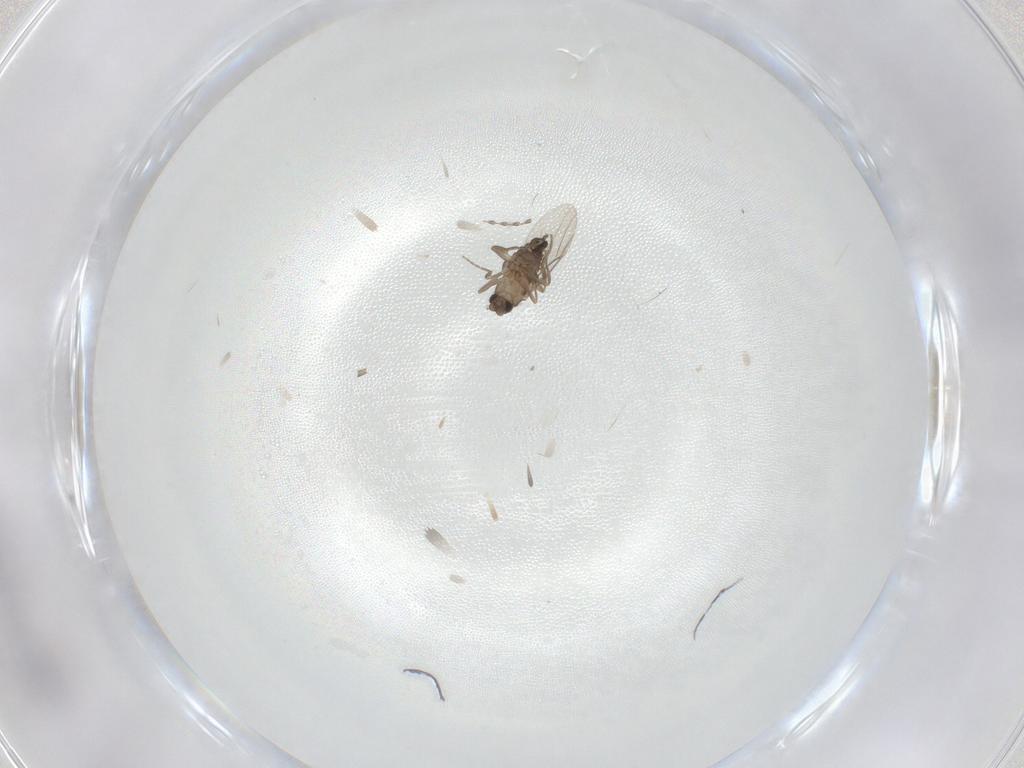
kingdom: Animalia
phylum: Arthropoda
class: Insecta
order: Diptera
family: Phoridae
